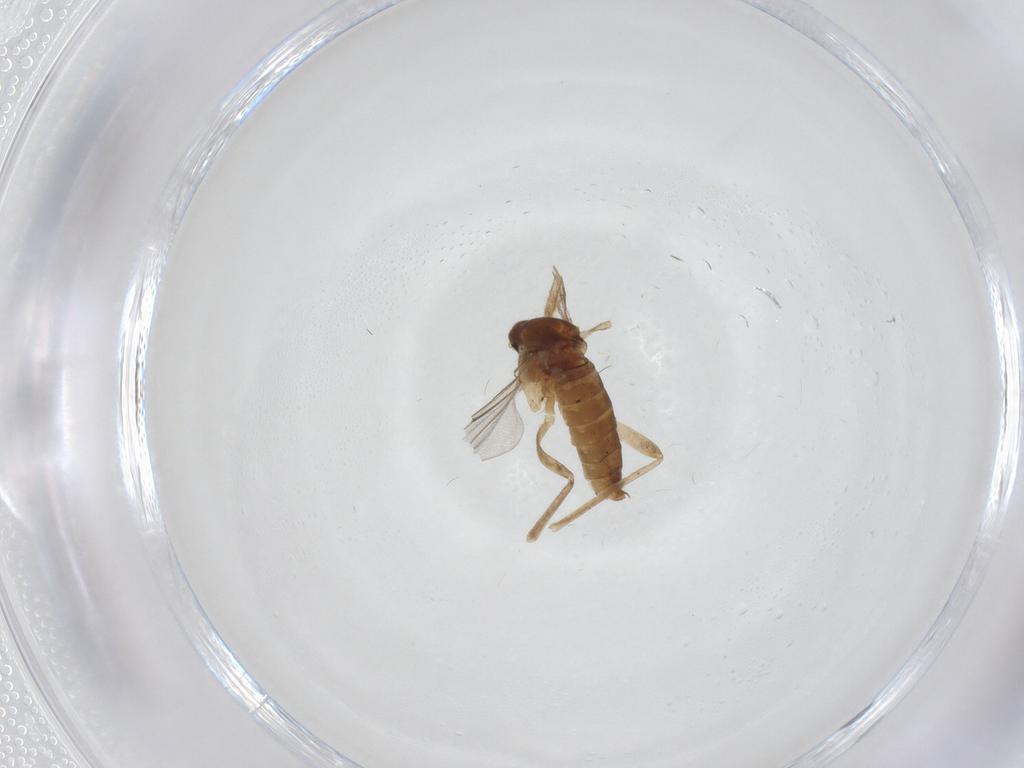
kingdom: Animalia
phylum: Arthropoda
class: Insecta
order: Diptera
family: Cecidomyiidae
